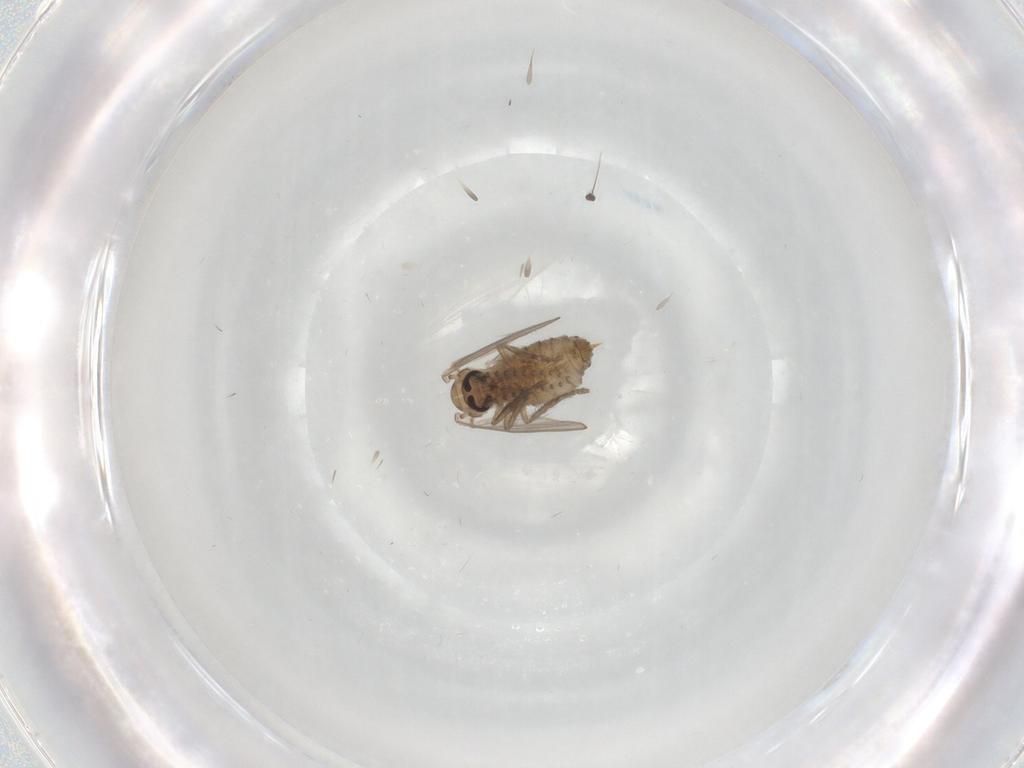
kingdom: Animalia
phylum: Arthropoda
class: Insecta
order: Diptera
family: Psychodidae
